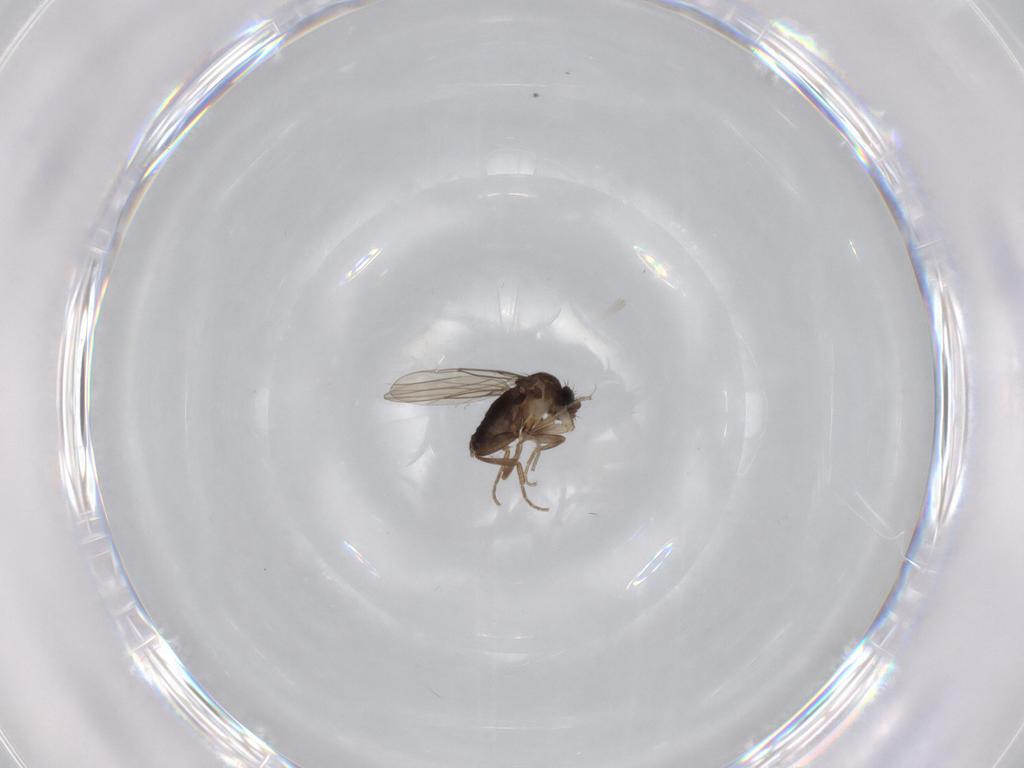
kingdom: Animalia
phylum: Arthropoda
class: Insecta
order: Diptera
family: Phoridae
